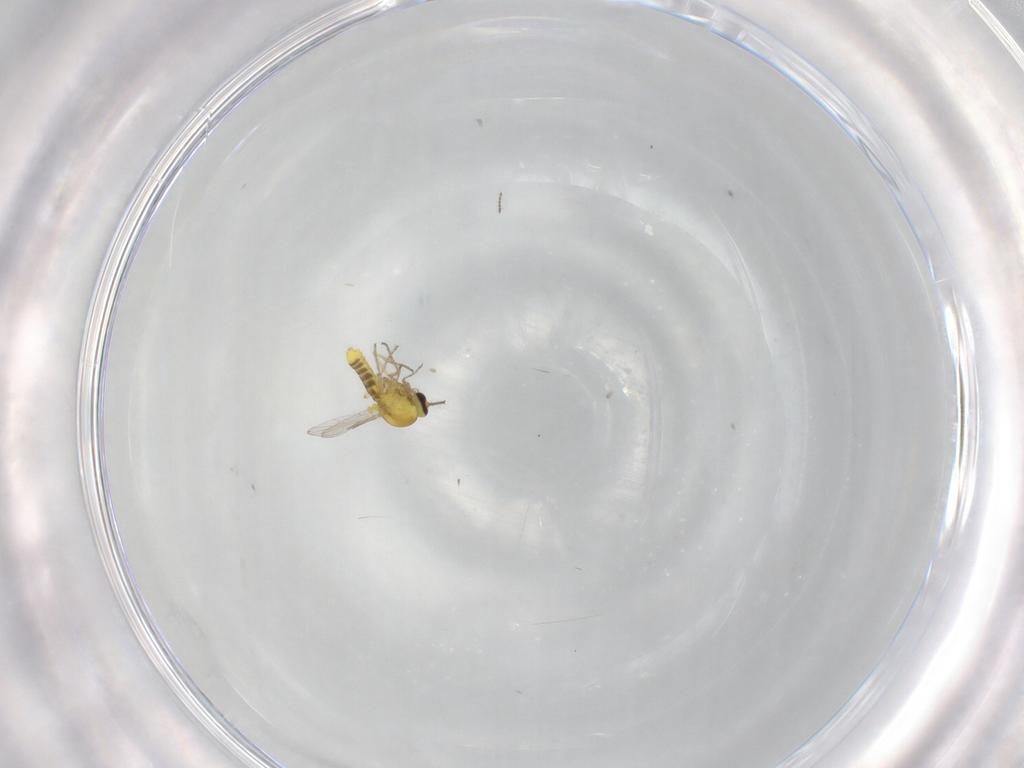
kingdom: Animalia
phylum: Arthropoda
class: Insecta
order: Diptera
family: Ceratopogonidae
